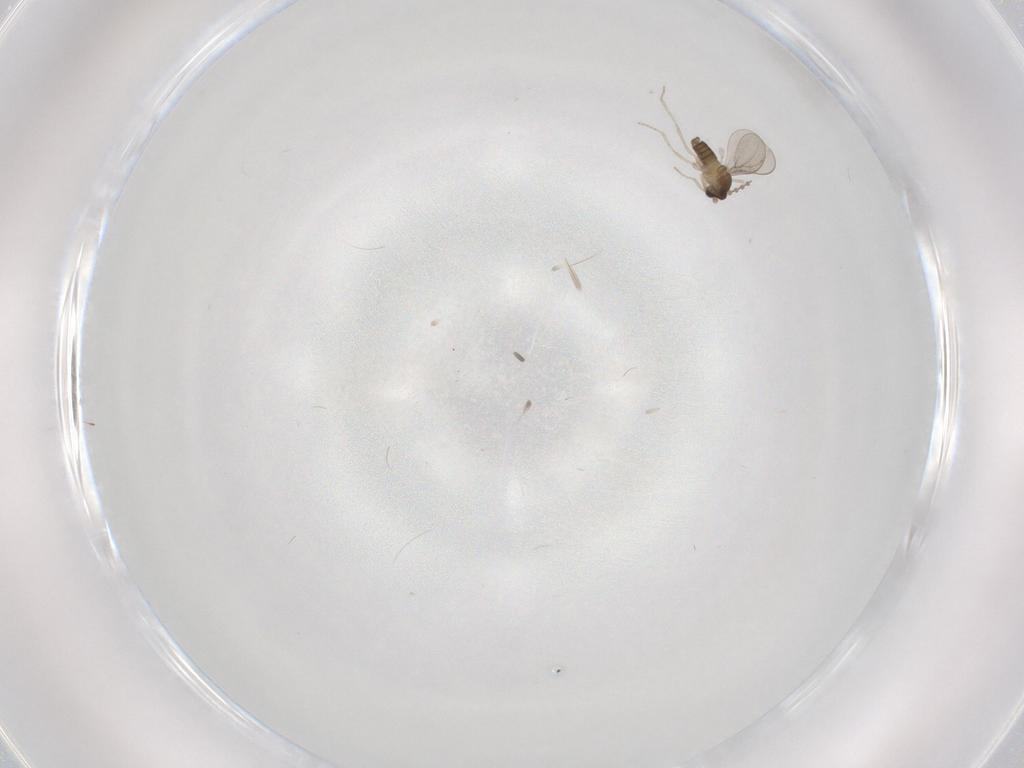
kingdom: Animalia
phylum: Arthropoda
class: Insecta
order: Diptera
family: Cecidomyiidae
